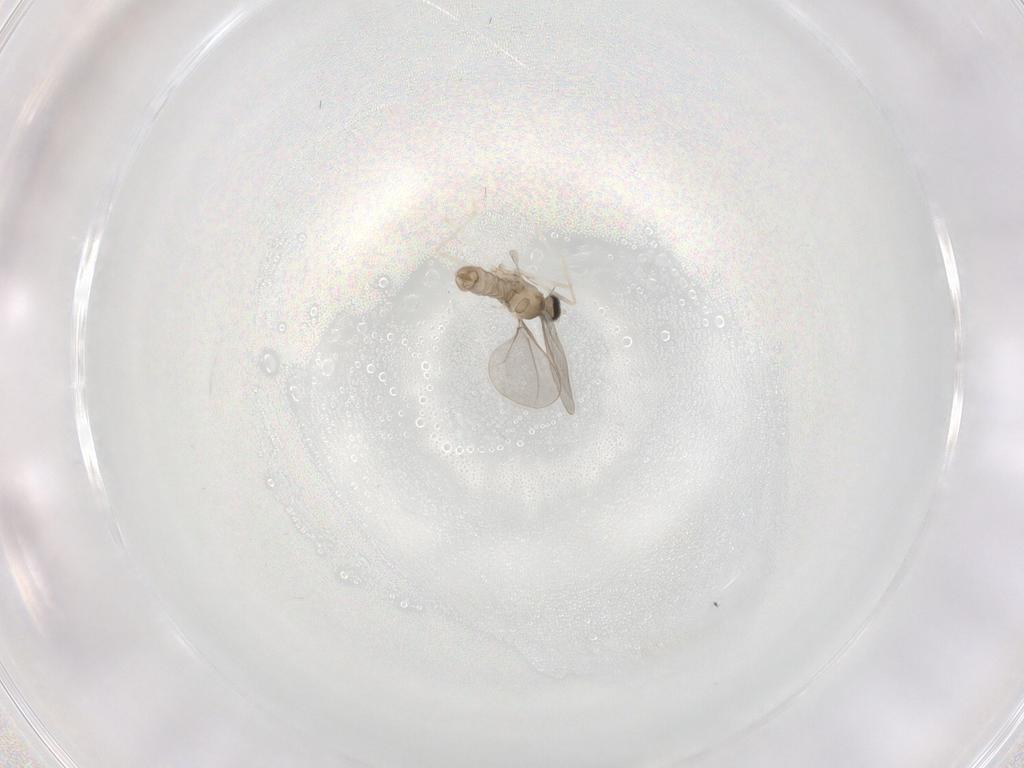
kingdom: Animalia
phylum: Arthropoda
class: Insecta
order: Diptera
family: Cecidomyiidae
